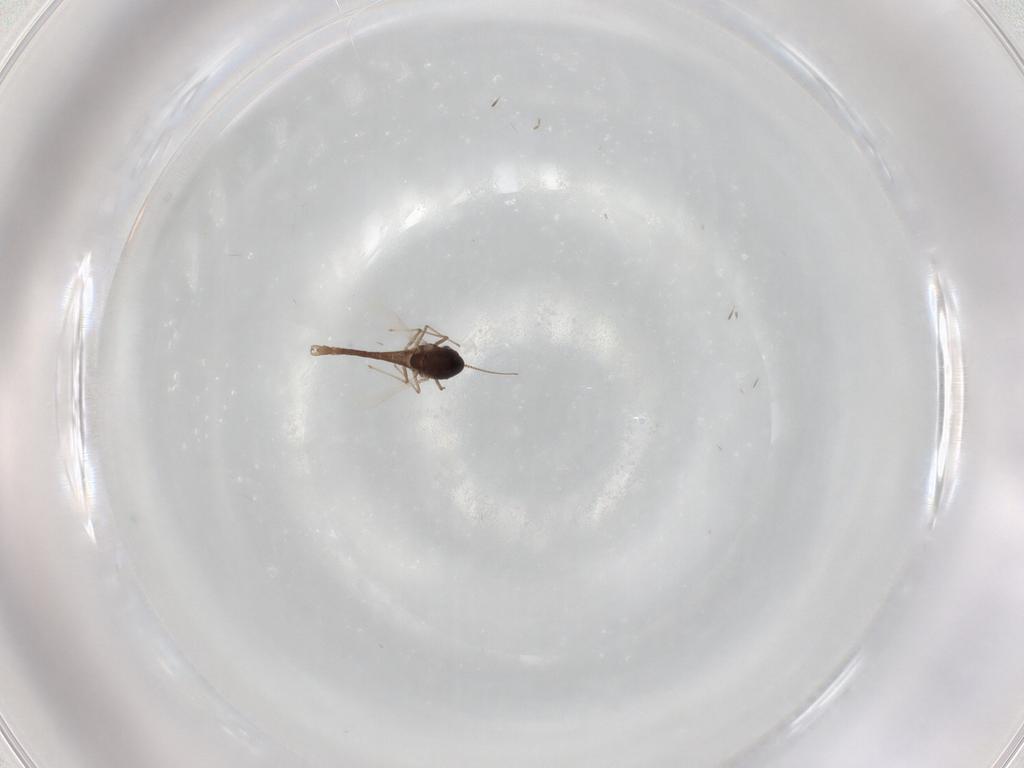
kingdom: Animalia
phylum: Arthropoda
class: Insecta
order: Diptera
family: Chironomidae
